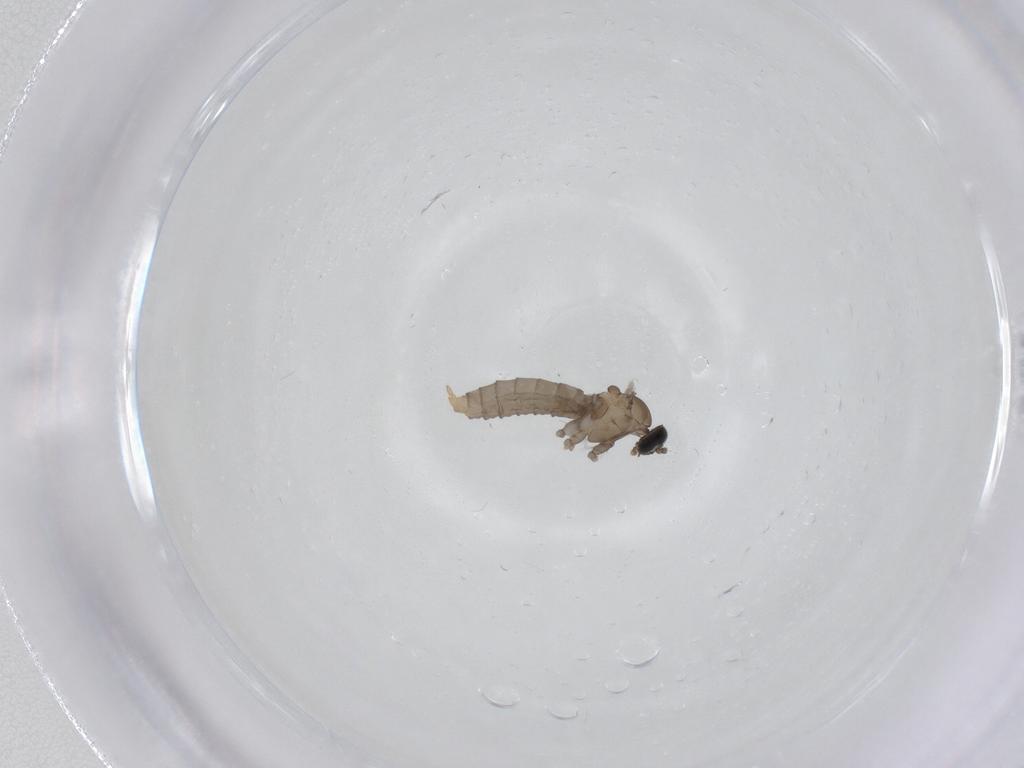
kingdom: Animalia
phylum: Arthropoda
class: Insecta
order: Diptera
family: Cecidomyiidae
